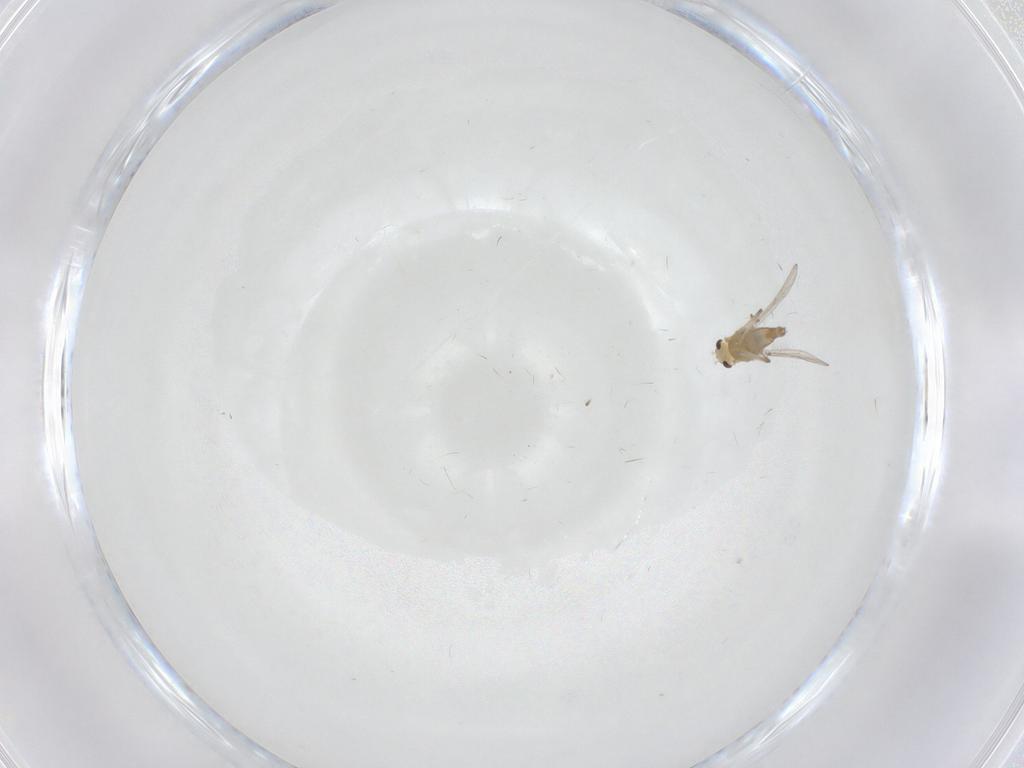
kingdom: Animalia
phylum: Arthropoda
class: Insecta
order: Diptera
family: Limoniidae
